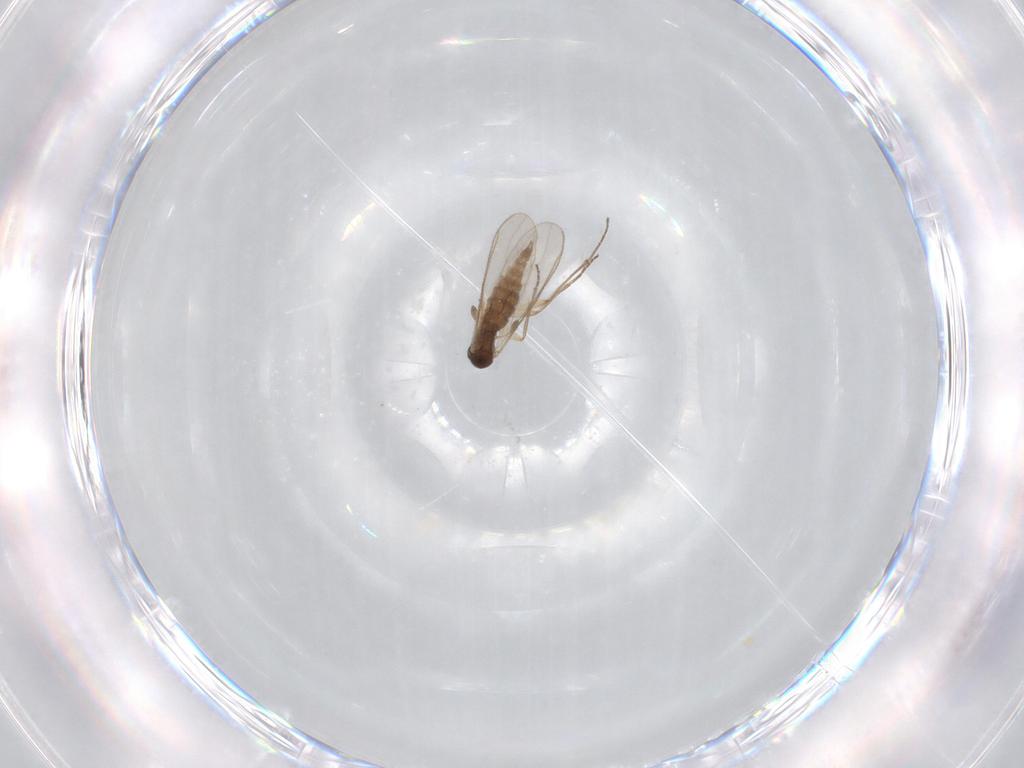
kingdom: Animalia
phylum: Arthropoda
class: Insecta
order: Diptera
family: Sciaridae
